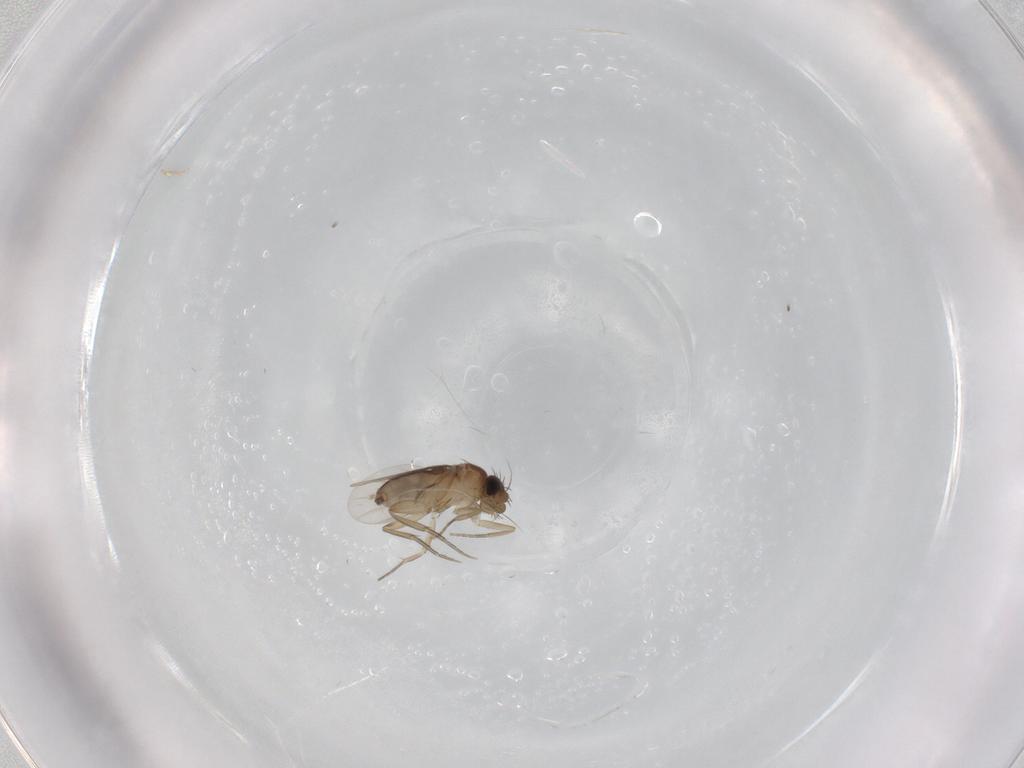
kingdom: Animalia
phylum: Arthropoda
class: Insecta
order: Diptera
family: Phoridae
